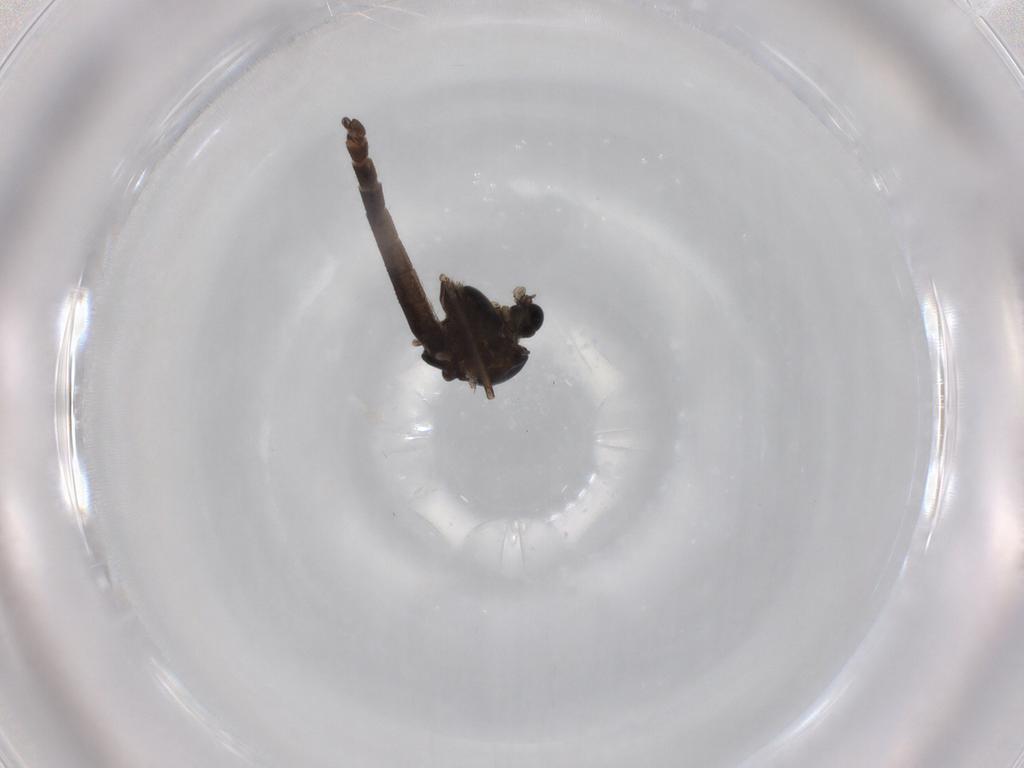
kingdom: Animalia
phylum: Arthropoda
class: Insecta
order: Diptera
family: Chironomidae
